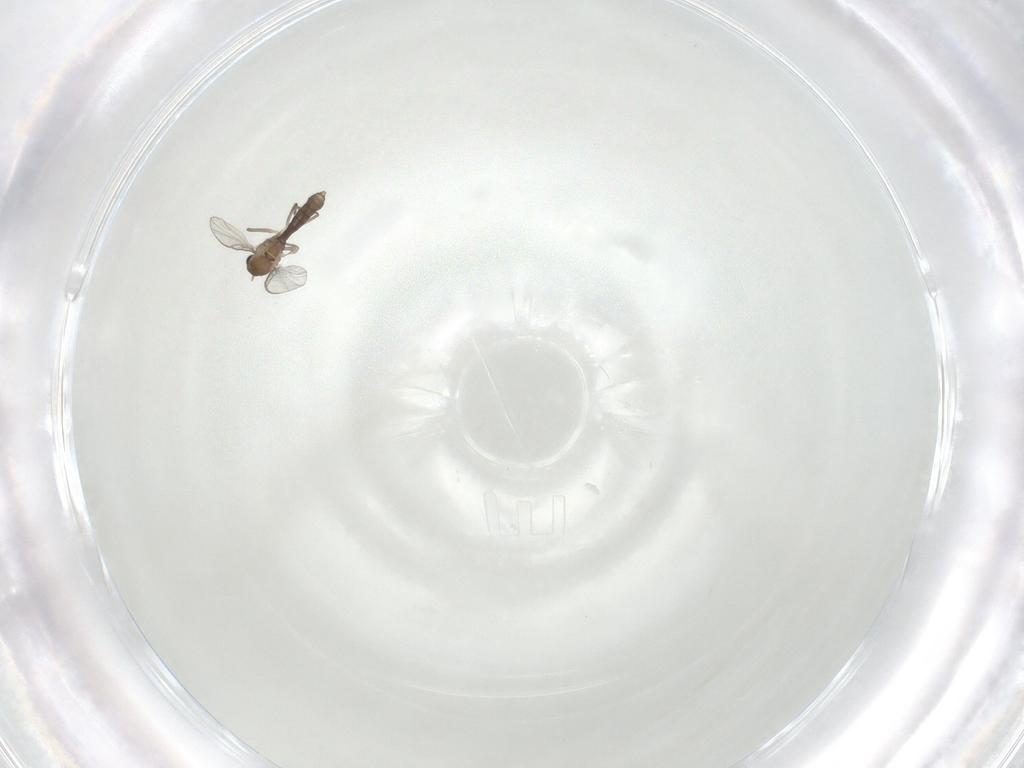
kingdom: Animalia
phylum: Arthropoda
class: Insecta
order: Diptera
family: Chironomidae
